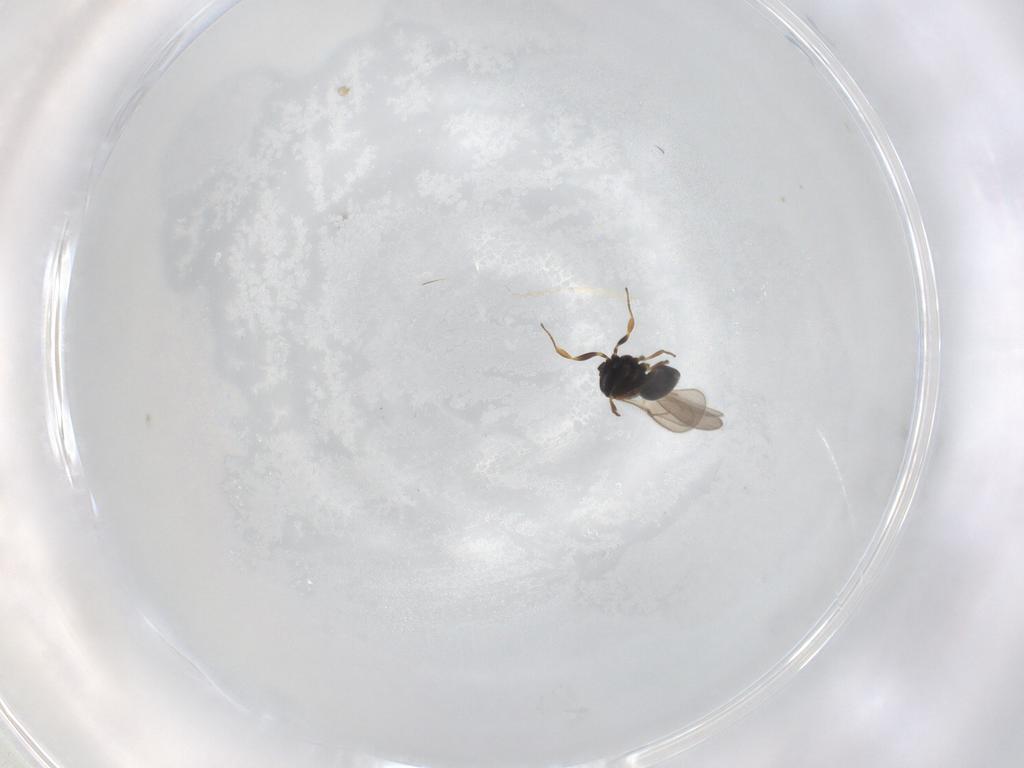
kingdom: Animalia
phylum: Arthropoda
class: Insecta
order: Hymenoptera
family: Scelionidae
